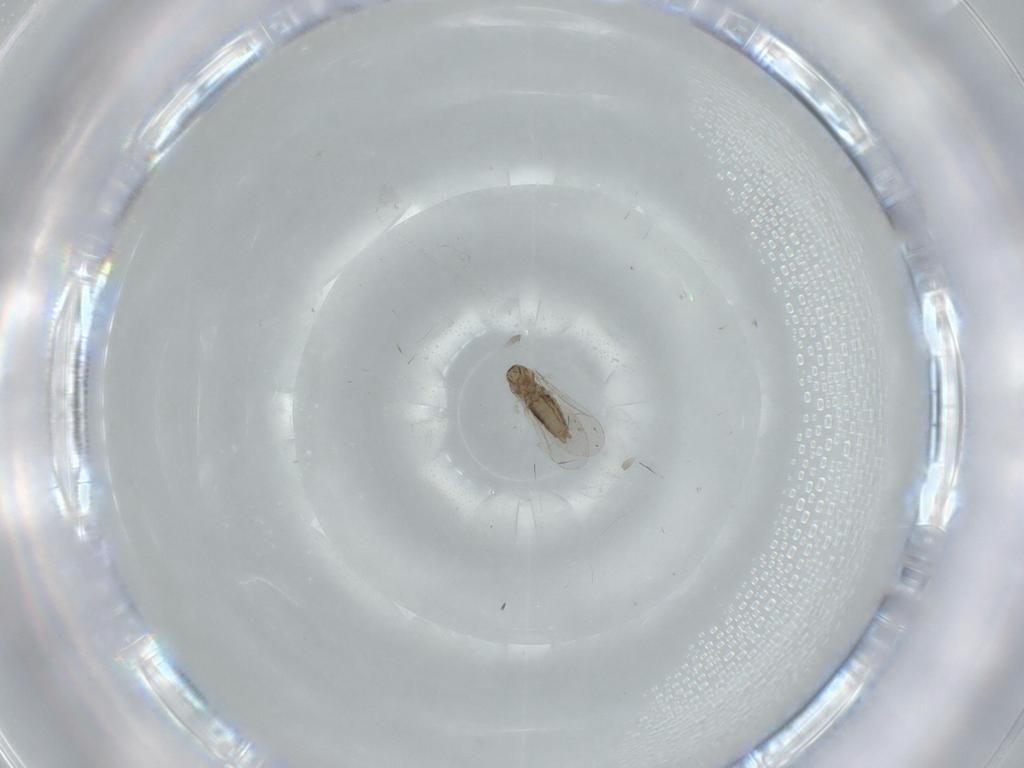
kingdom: Animalia
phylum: Arthropoda
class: Insecta
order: Diptera
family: Cecidomyiidae
